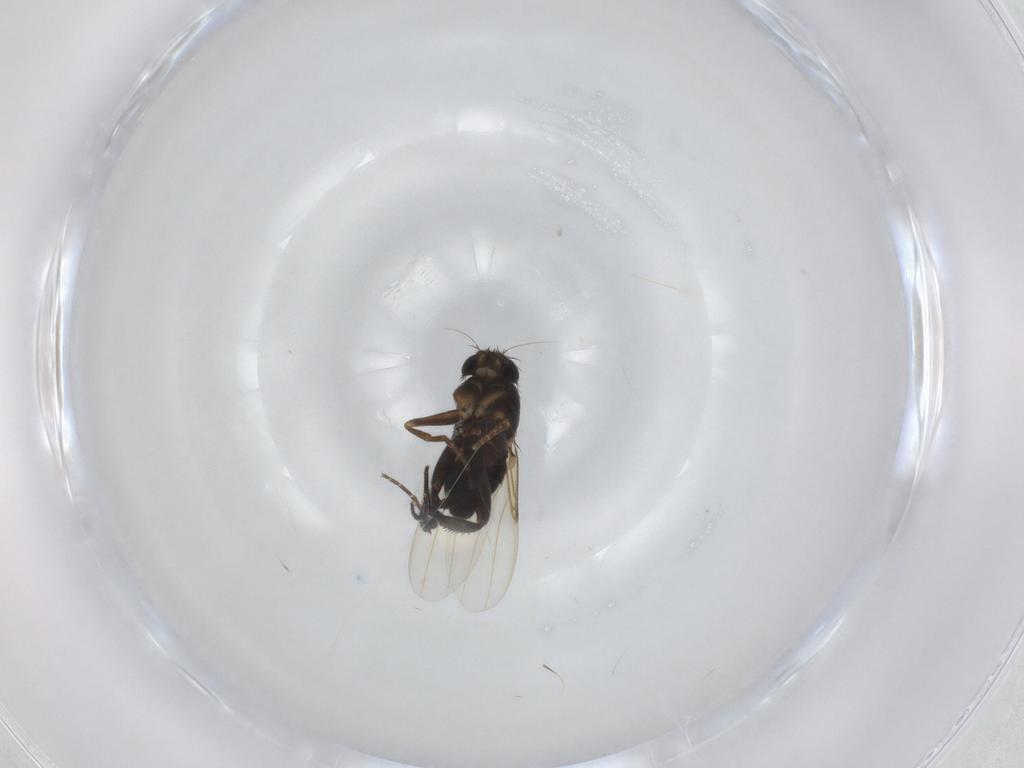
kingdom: Animalia
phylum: Arthropoda
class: Insecta
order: Diptera
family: Phoridae
